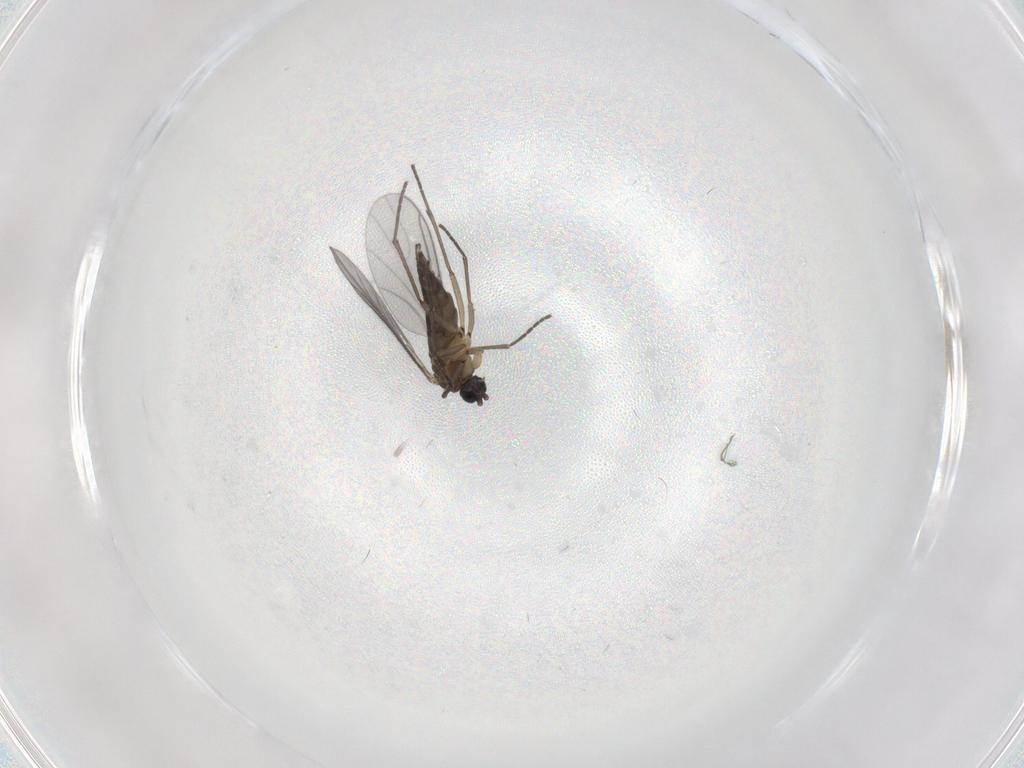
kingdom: Animalia
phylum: Arthropoda
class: Insecta
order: Diptera
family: Sciaridae
